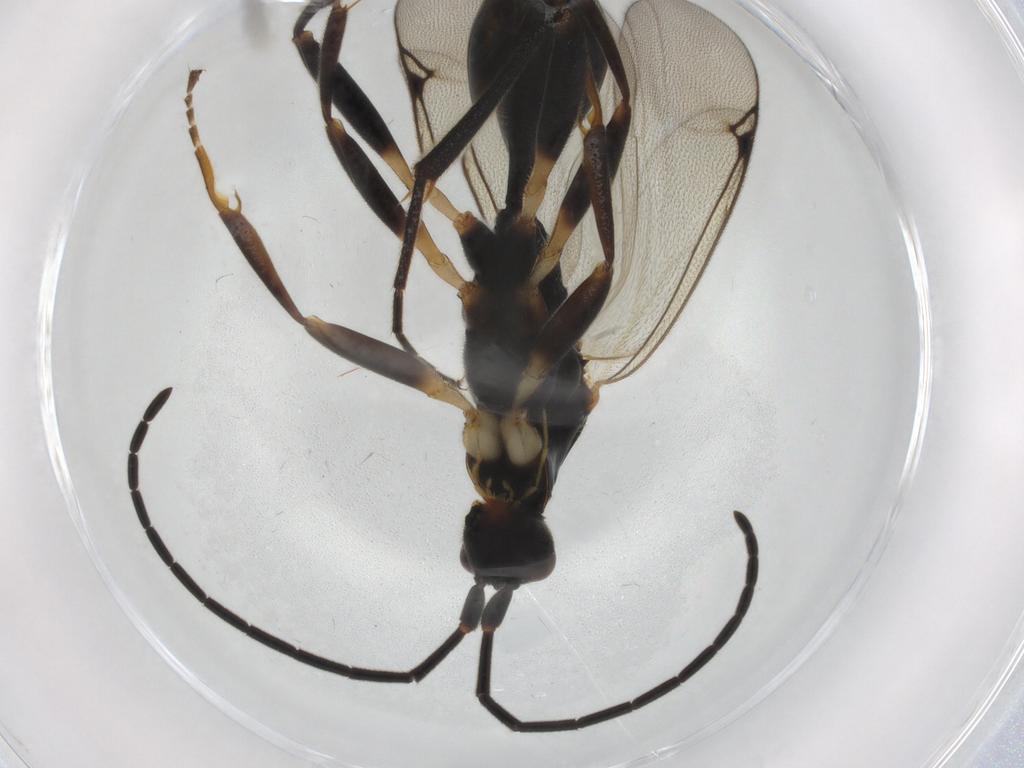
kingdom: Animalia
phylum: Arthropoda
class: Insecta
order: Hymenoptera
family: Proctotrupidae
